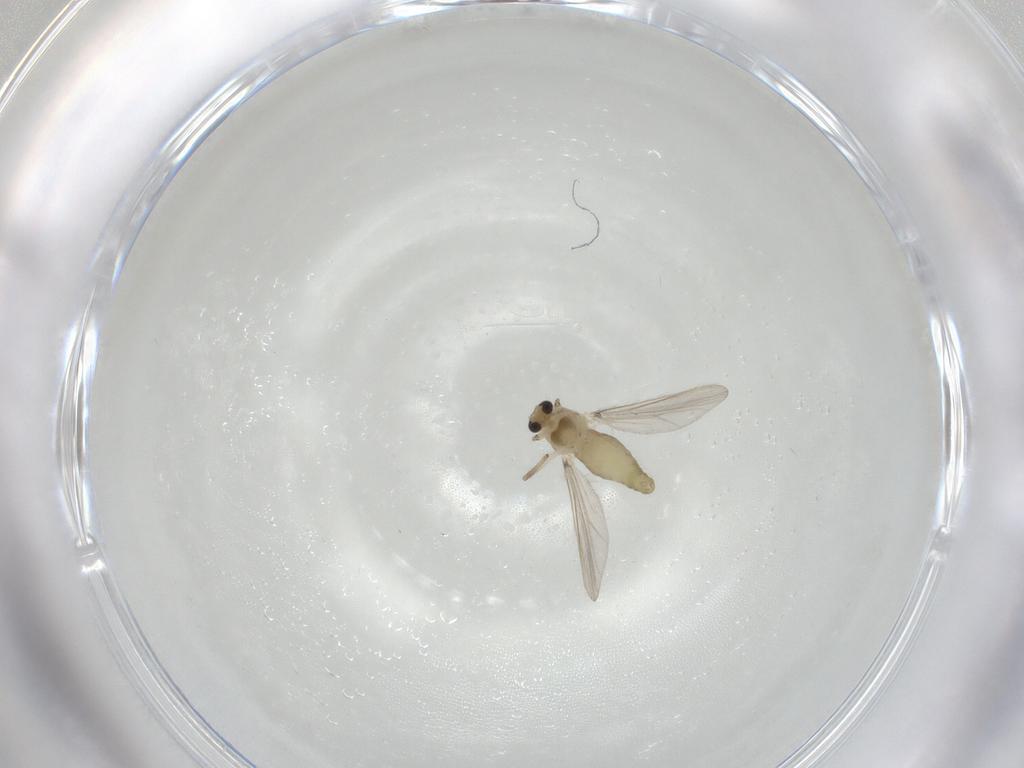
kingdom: Animalia
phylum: Arthropoda
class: Insecta
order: Diptera
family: Chironomidae
